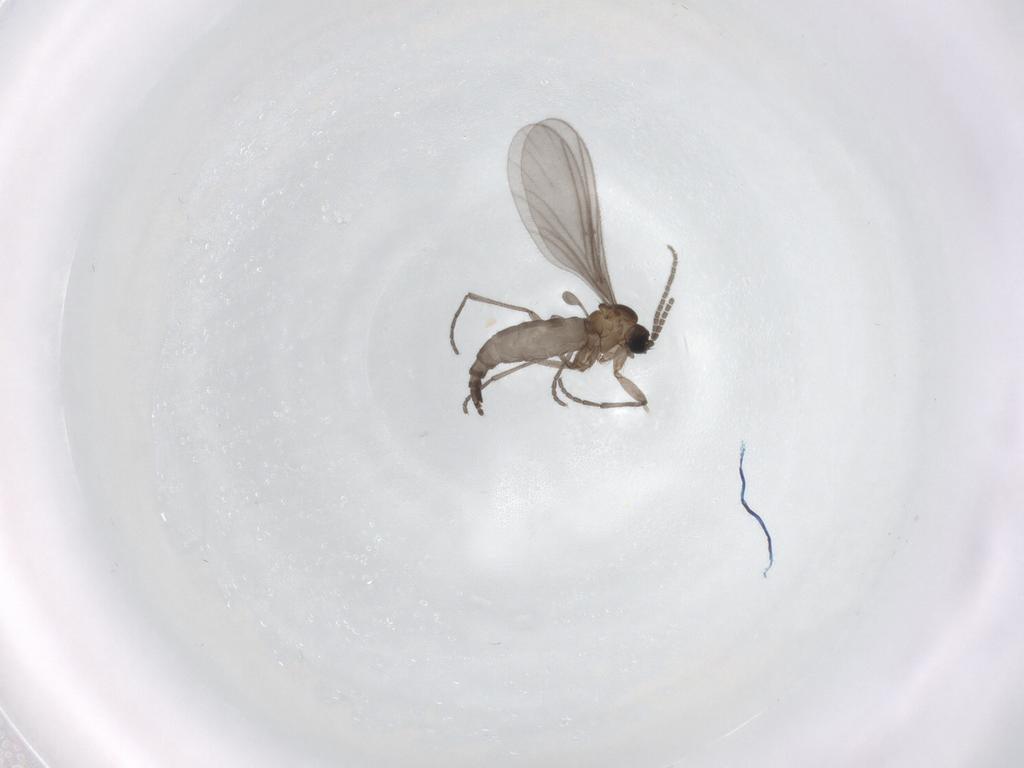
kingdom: Animalia
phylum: Arthropoda
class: Insecta
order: Diptera
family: Sciaridae
